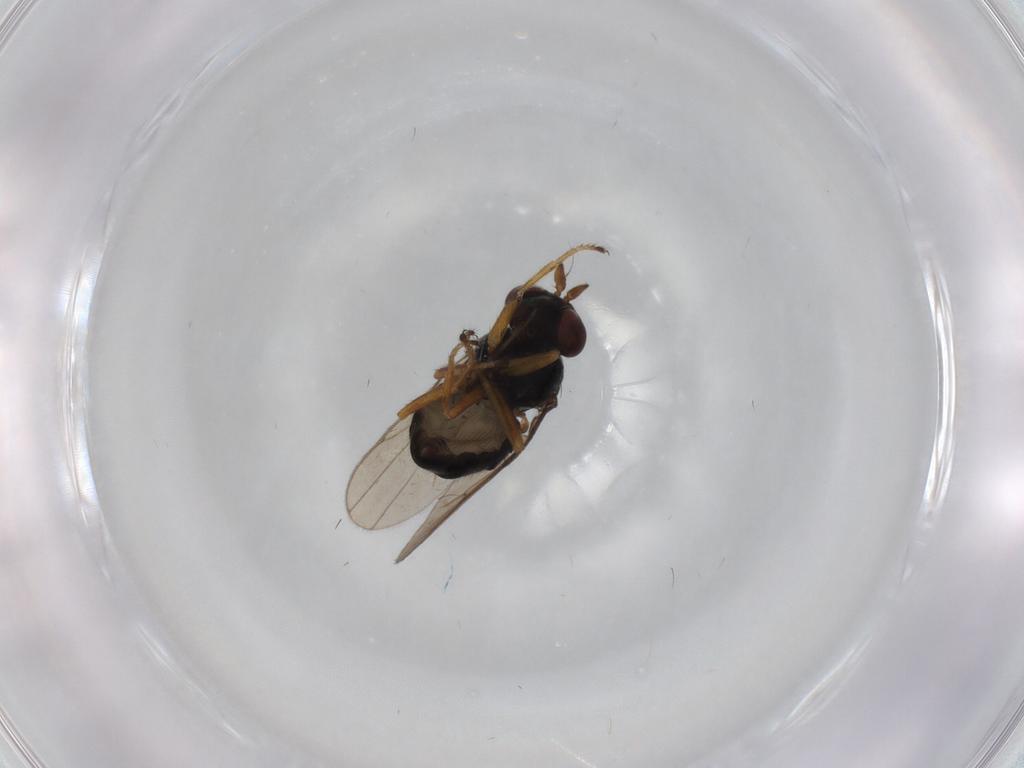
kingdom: Animalia
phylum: Arthropoda
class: Insecta
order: Diptera
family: Ephydridae
